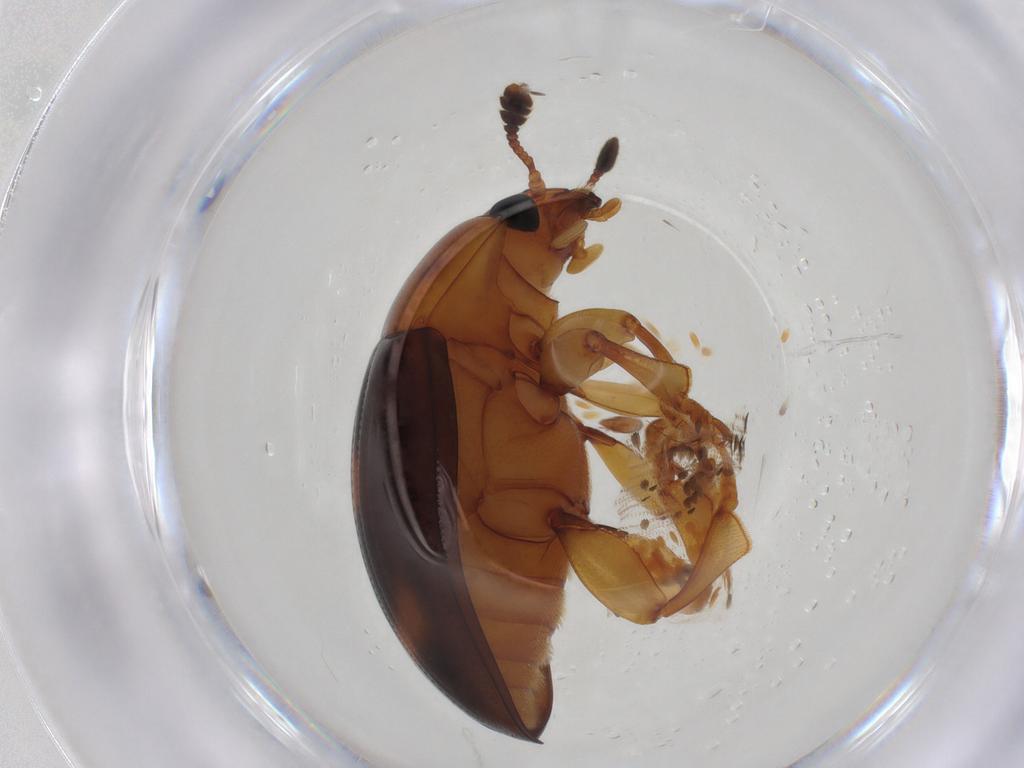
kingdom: Animalia
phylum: Arthropoda
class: Insecta
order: Coleoptera
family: Erotylidae
